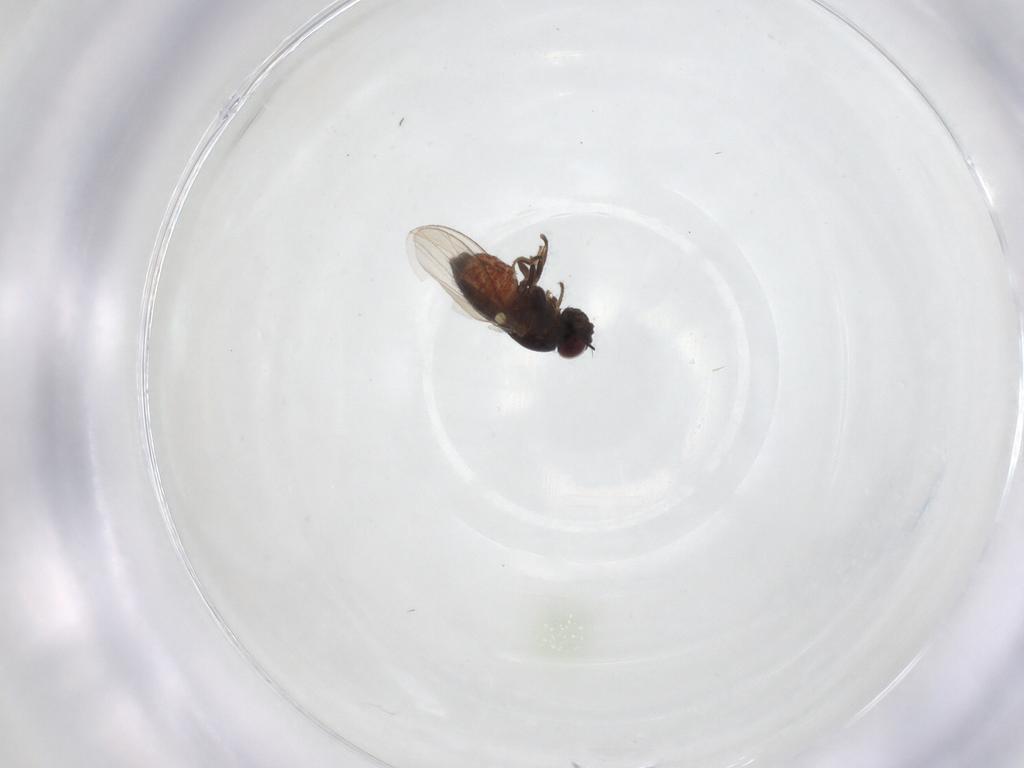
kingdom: Animalia
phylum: Arthropoda
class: Insecta
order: Diptera
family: Carnidae
